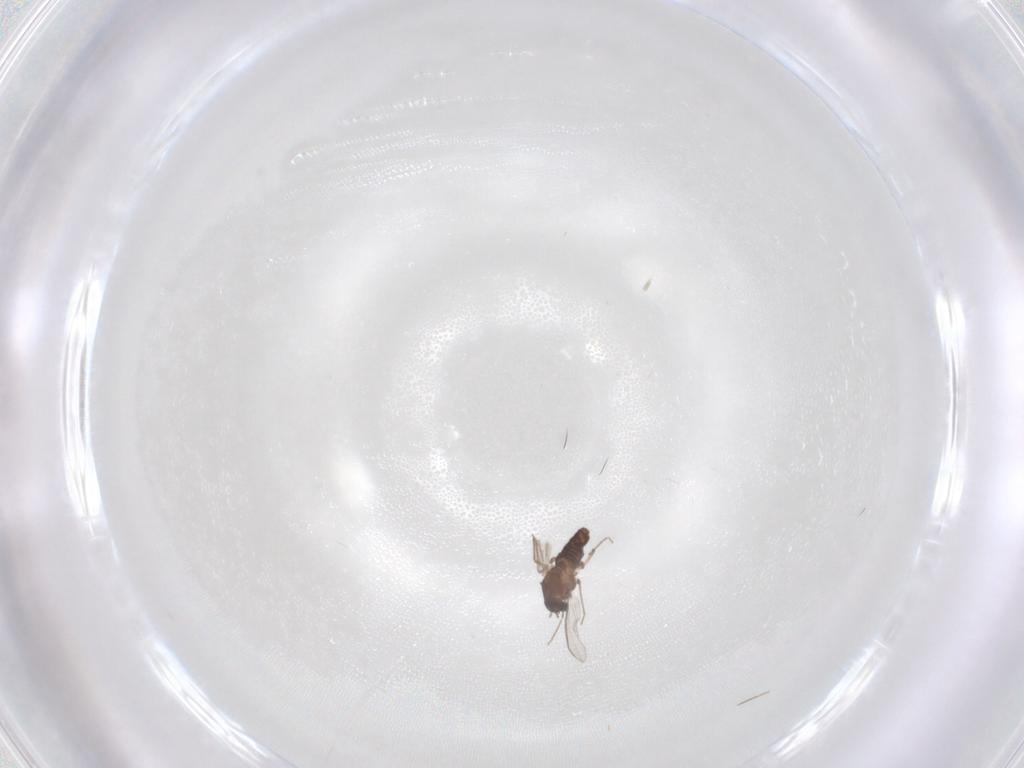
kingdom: Animalia
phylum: Arthropoda
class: Insecta
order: Diptera
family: Chironomidae
